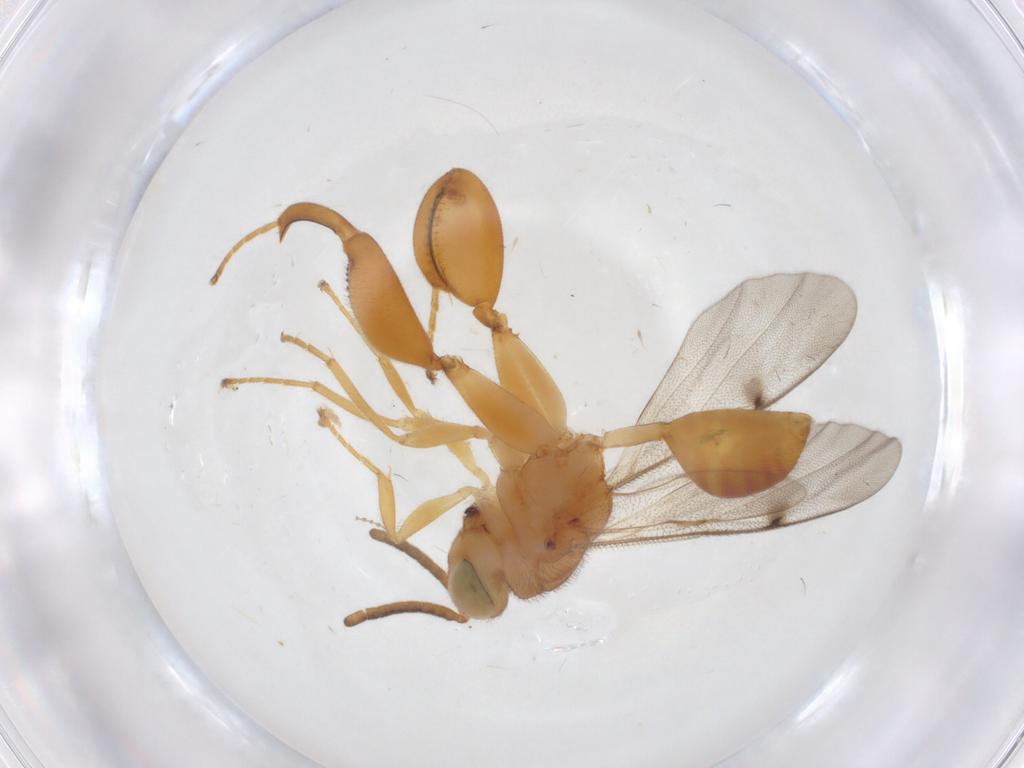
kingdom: Animalia
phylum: Arthropoda
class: Insecta
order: Hymenoptera
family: Chalcididae
